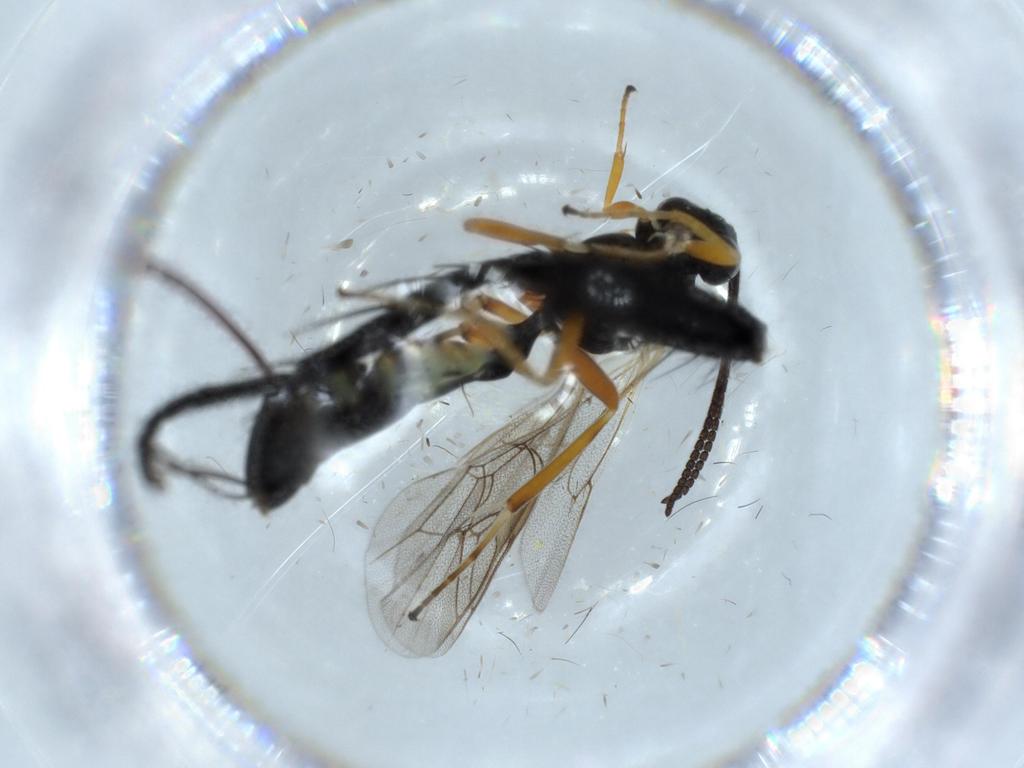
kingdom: Animalia
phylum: Arthropoda
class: Insecta
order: Hymenoptera
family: Ichneumonidae
